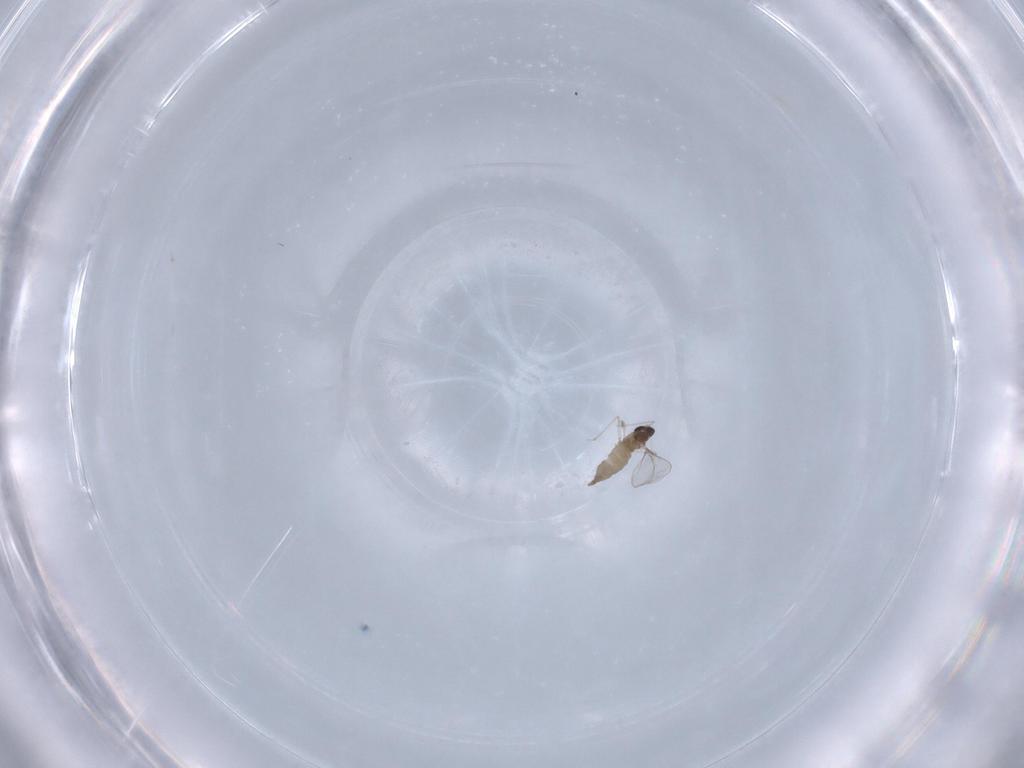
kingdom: Animalia
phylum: Arthropoda
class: Insecta
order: Diptera
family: Cecidomyiidae
